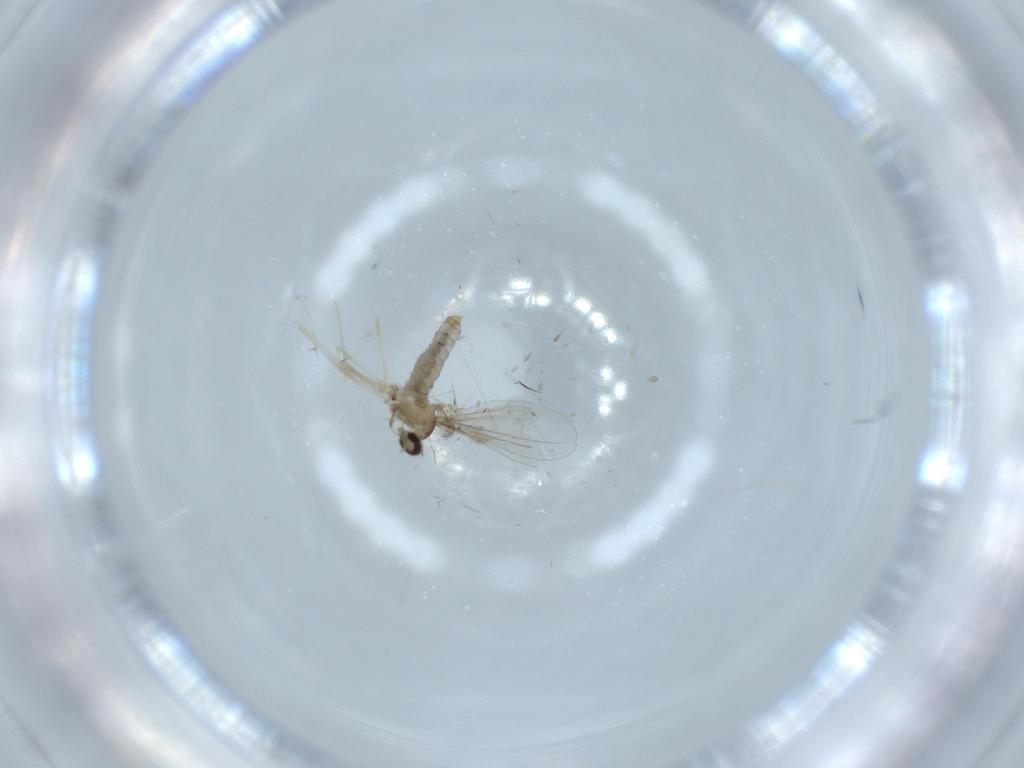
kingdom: Animalia
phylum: Arthropoda
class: Insecta
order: Diptera
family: Cecidomyiidae
